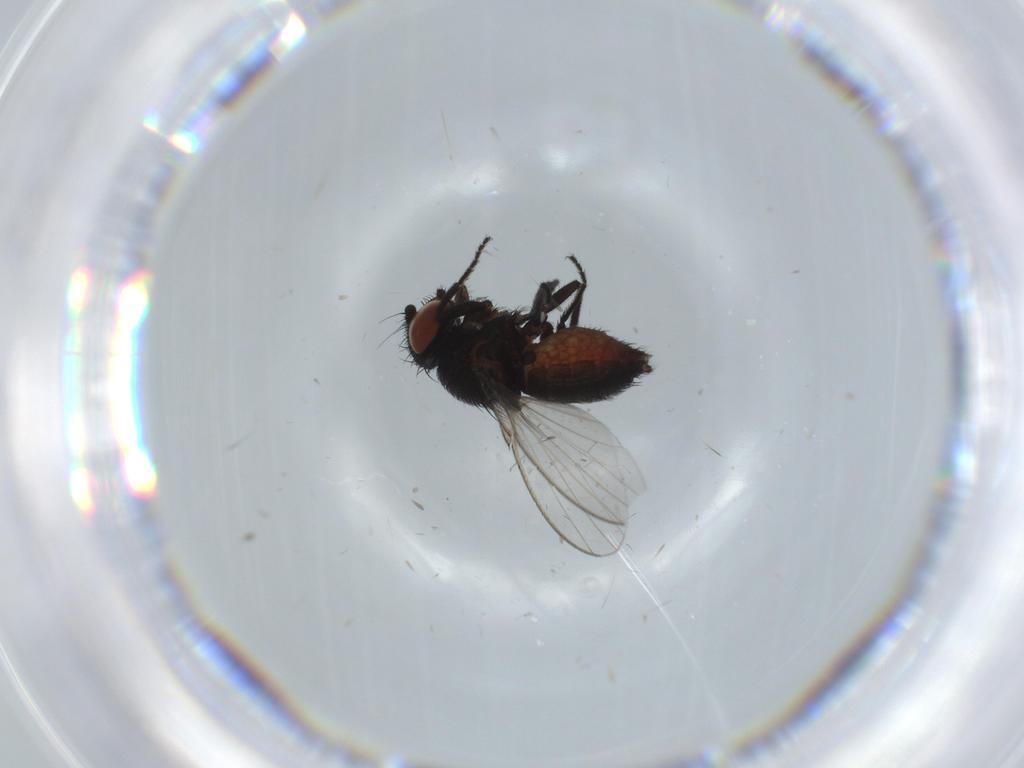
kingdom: Animalia
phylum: Arthropoda
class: Insecta
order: Diptera
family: Milichiidae
